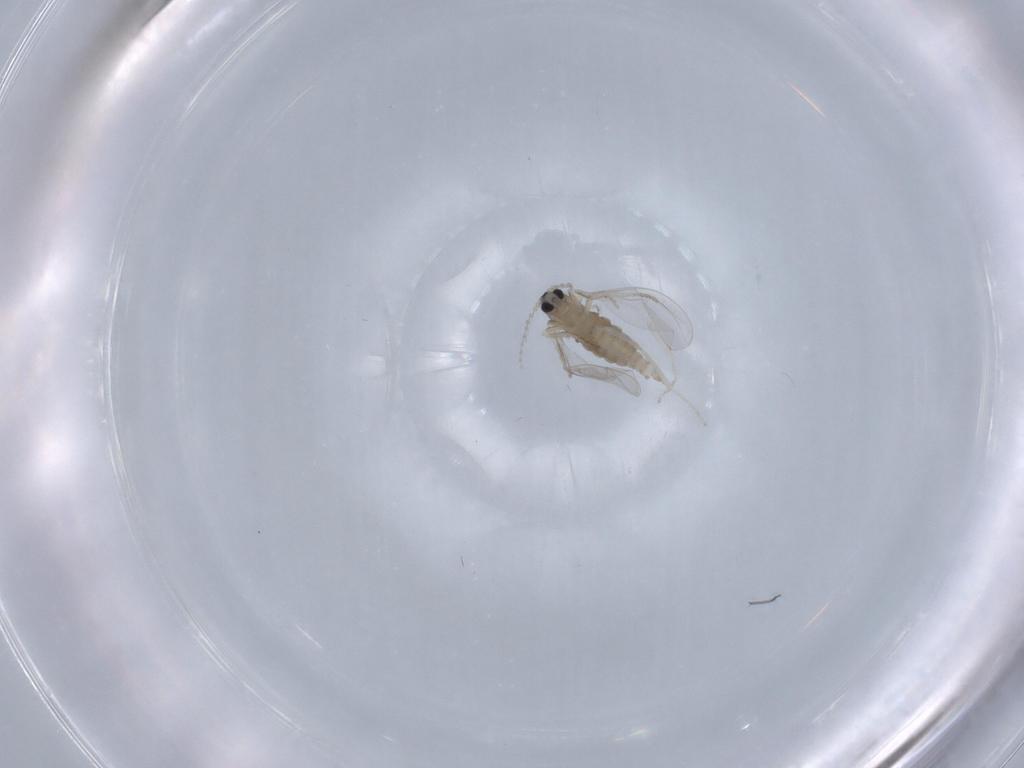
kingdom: Animalia
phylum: Arthropoda
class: Insecta
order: Diptera
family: Cecidomyiidae
